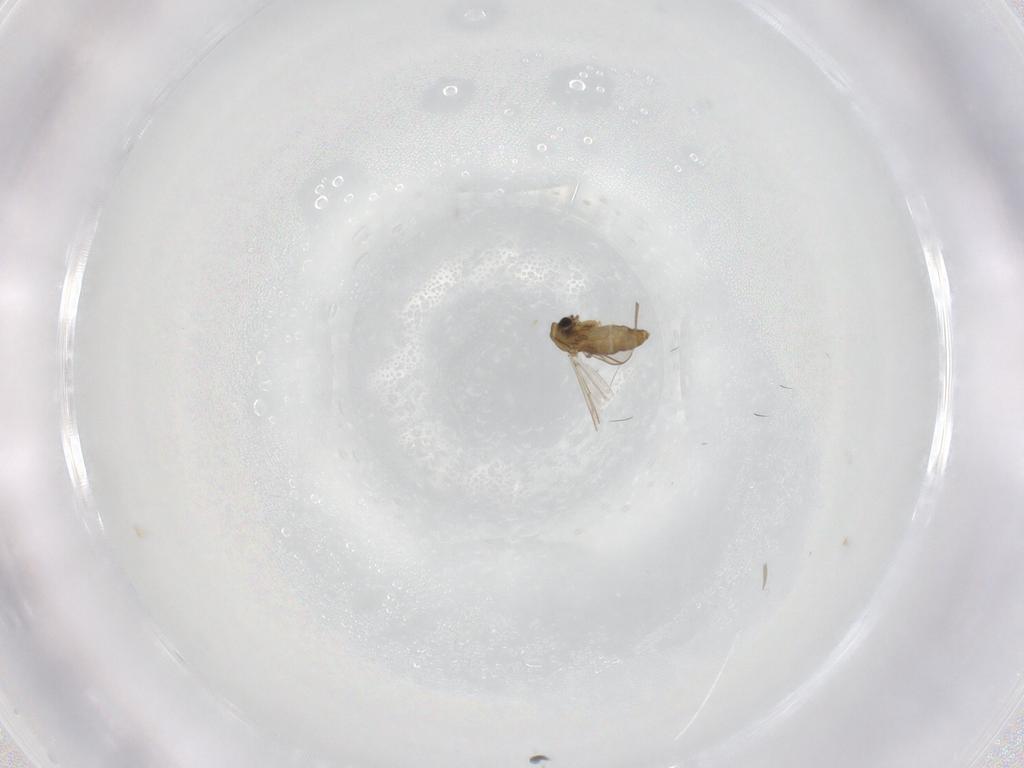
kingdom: Animalia
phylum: Arthropoda
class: Insecta
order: Diptera
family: Chironomidae
